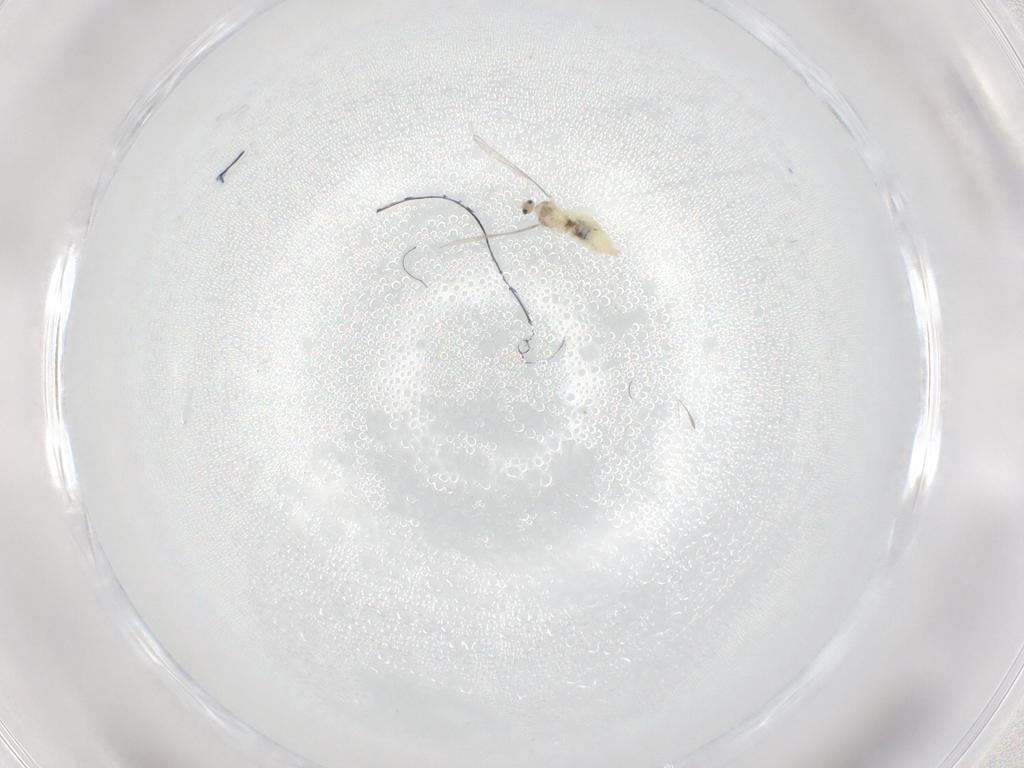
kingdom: Animalia
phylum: Arthropoda
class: Insecta
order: Diptera
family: Cecidomyiidae
